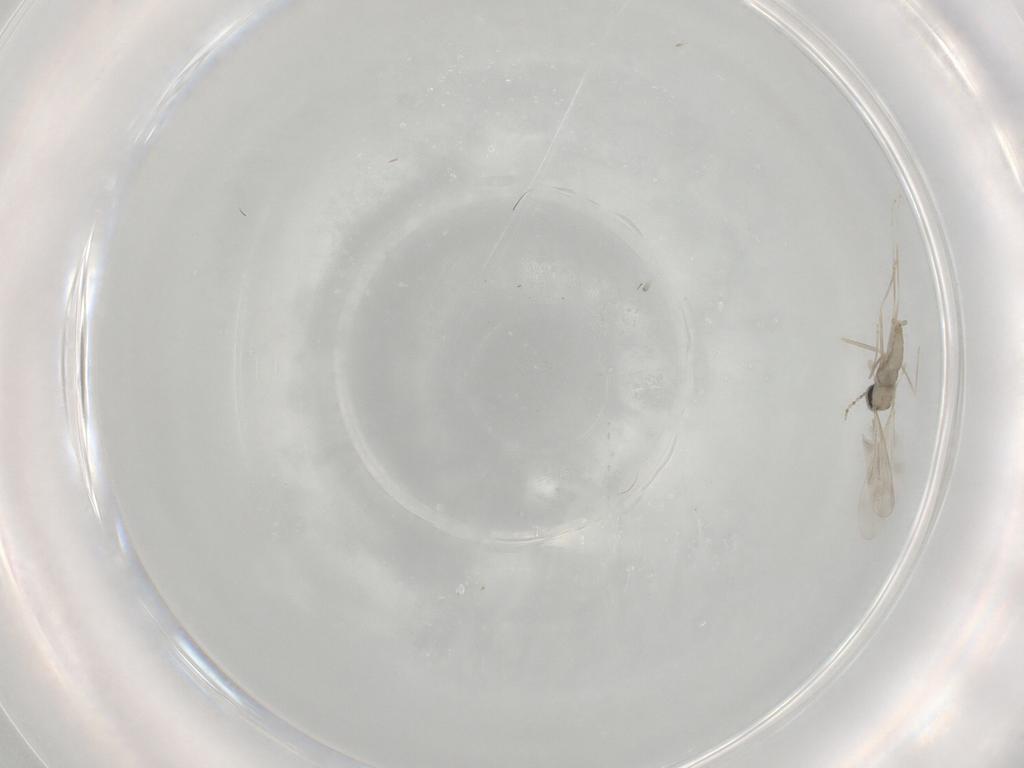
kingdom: Animalia
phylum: Arthropoda
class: Insecta
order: Diptera
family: Cecidomyiidae
